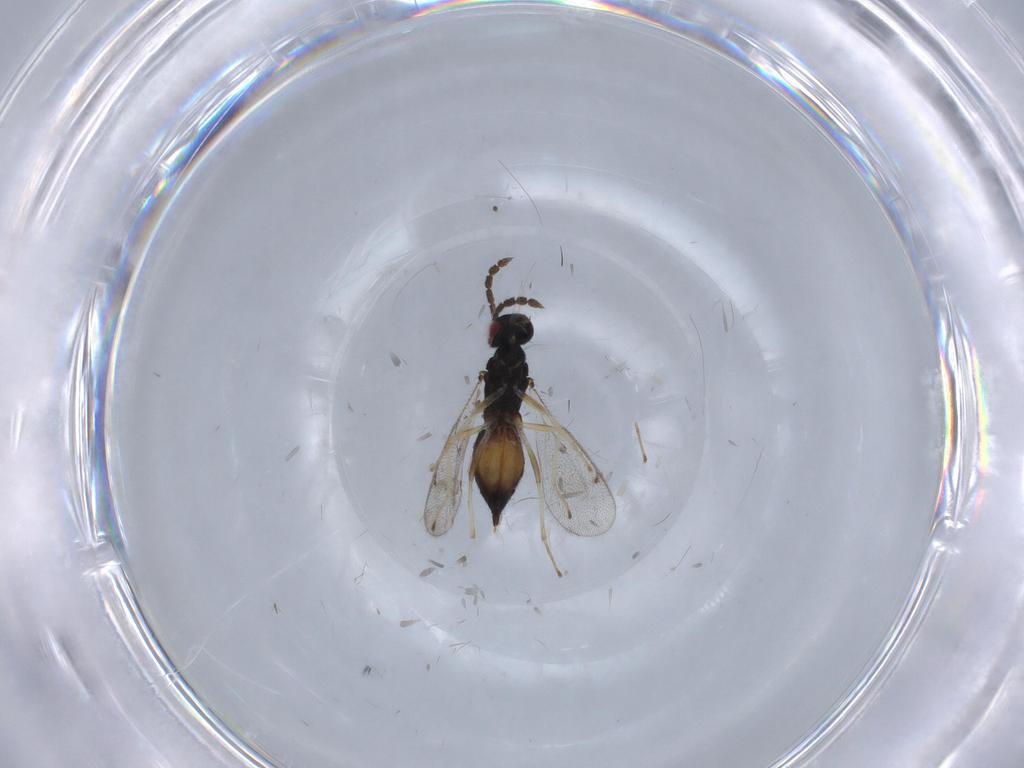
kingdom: Animalia
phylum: Arthropoda
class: Insecta
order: Hymenoptera
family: Eulophidae
